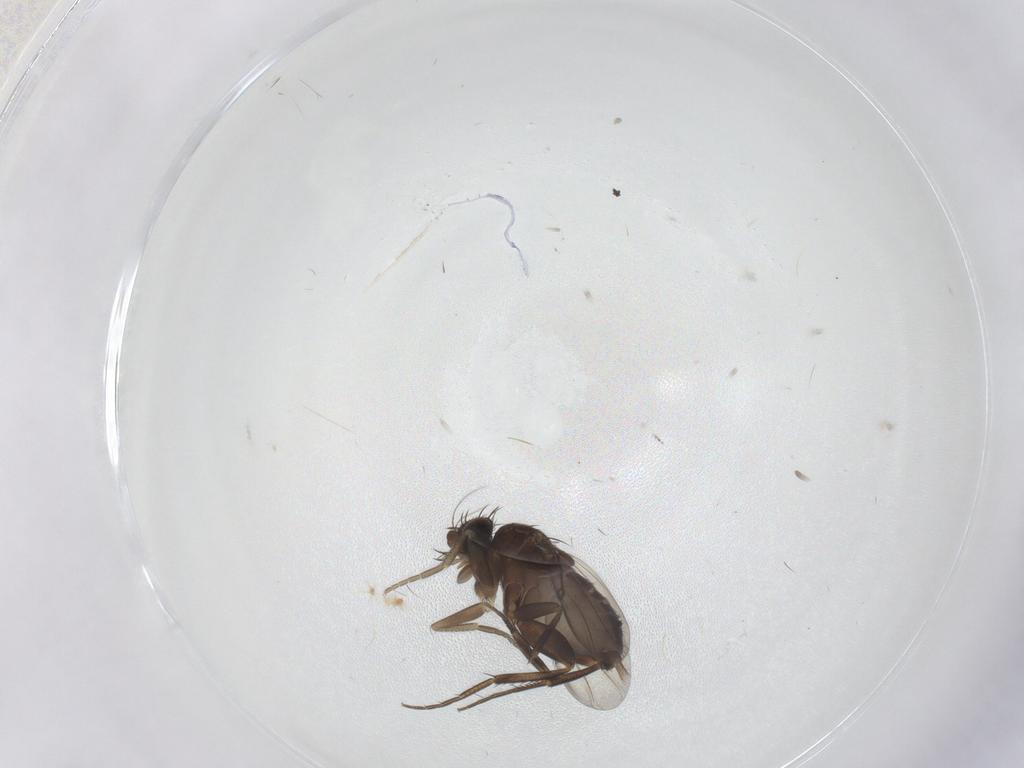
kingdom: Animalia
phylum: Arthropoda
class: Insecta
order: Diptera
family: Phoridae
